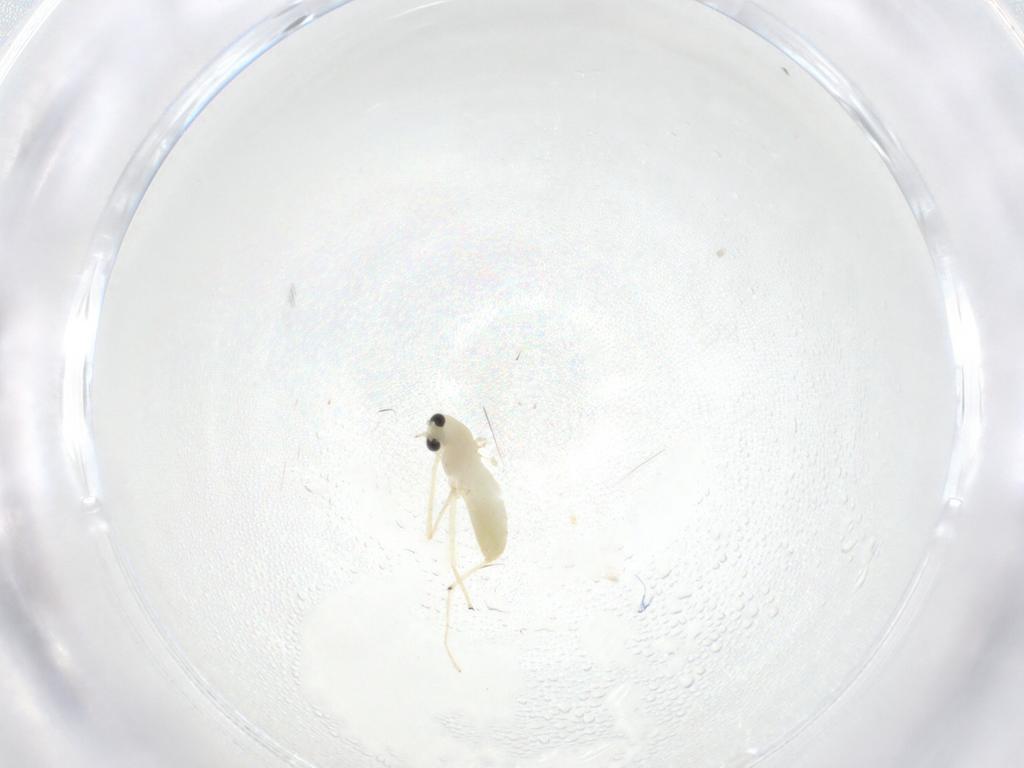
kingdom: Animalia
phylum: Arthropoda
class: Insecta
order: Diptera
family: Chironomidae
